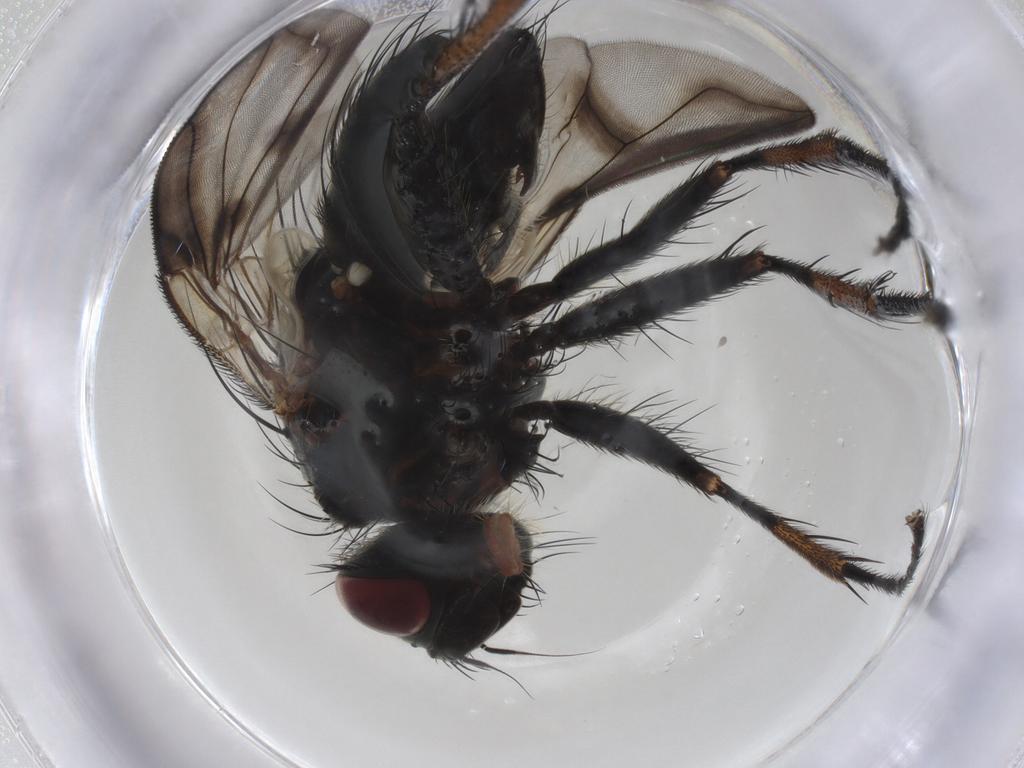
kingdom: Animalia
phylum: Arthropoda
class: Insecta
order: Diptera
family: Tachinidae
